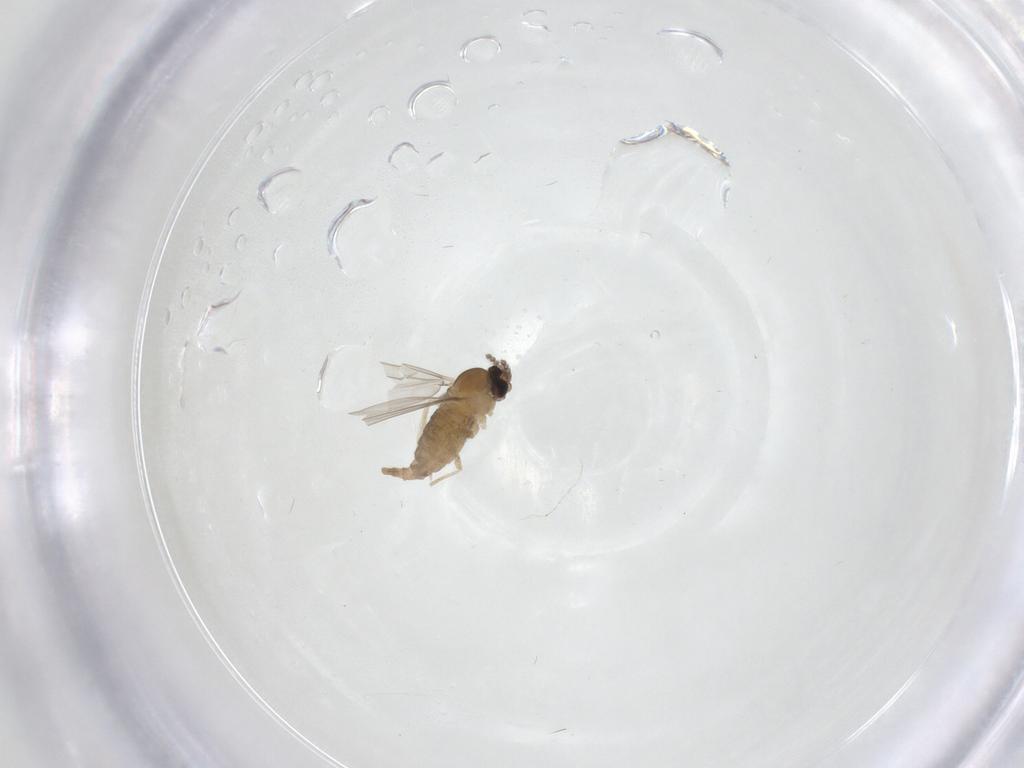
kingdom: Animalia
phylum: Arthropoda
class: Insecta
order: Diptera
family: Cecidomyiidae
